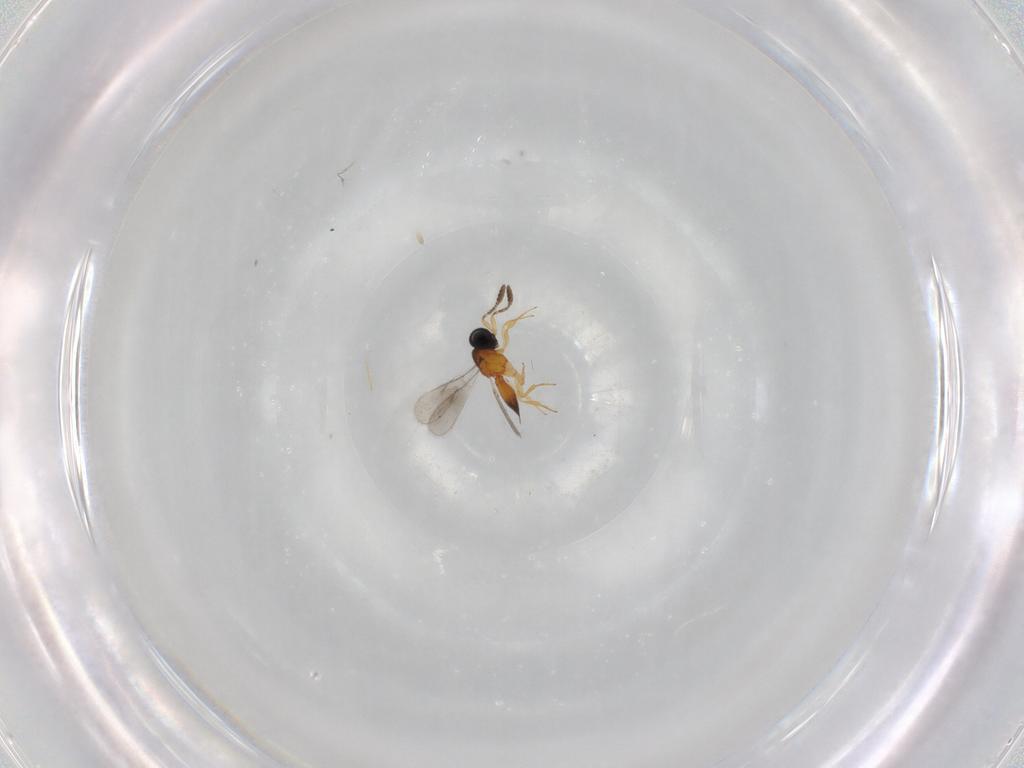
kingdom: Animalia
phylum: Arthropoda
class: Insecta
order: Hymenoptera
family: Scelionidae
